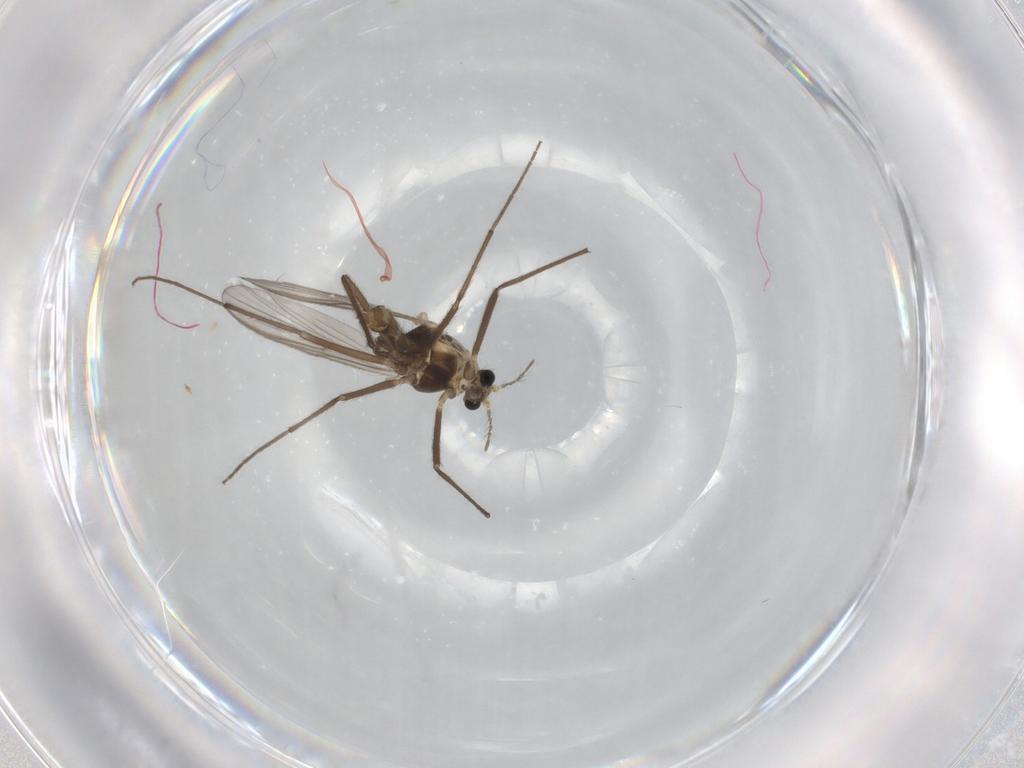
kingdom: Animalia
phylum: Arthropoda
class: Insecta
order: Diptera
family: Chironomidae
